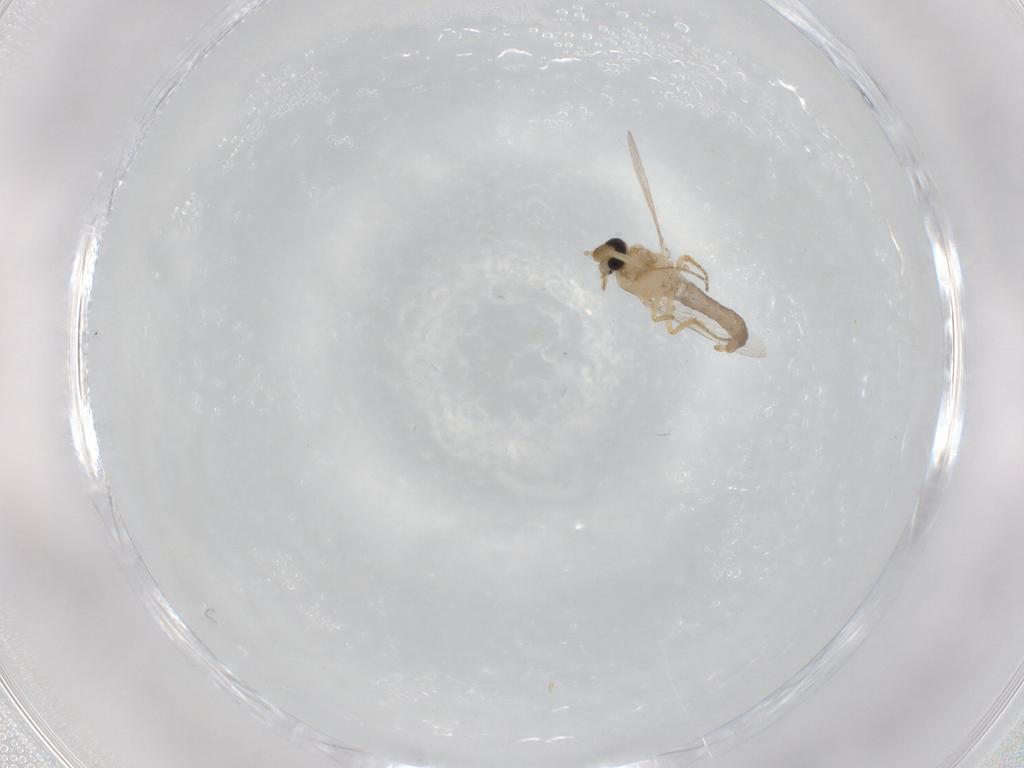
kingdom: Animalia
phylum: Arthropoda
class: Insecta
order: Diptera
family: Ceratopogonidae
